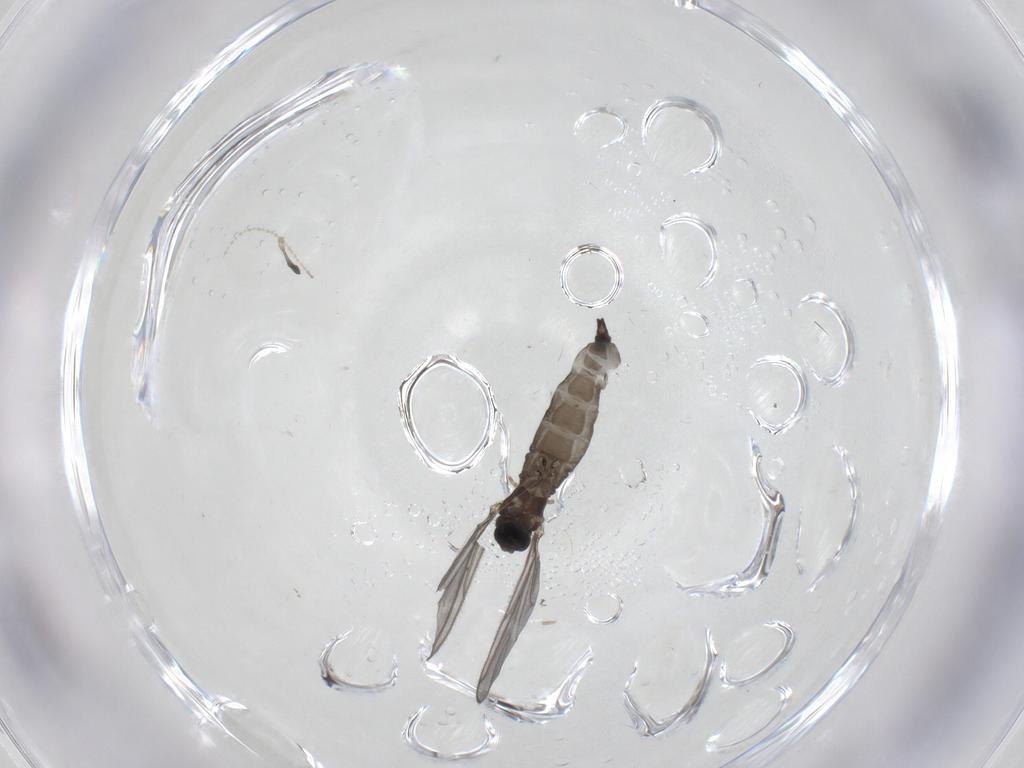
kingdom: Animalia
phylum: Arthropoda
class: Insecta
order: Diptera
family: Sciaridae
